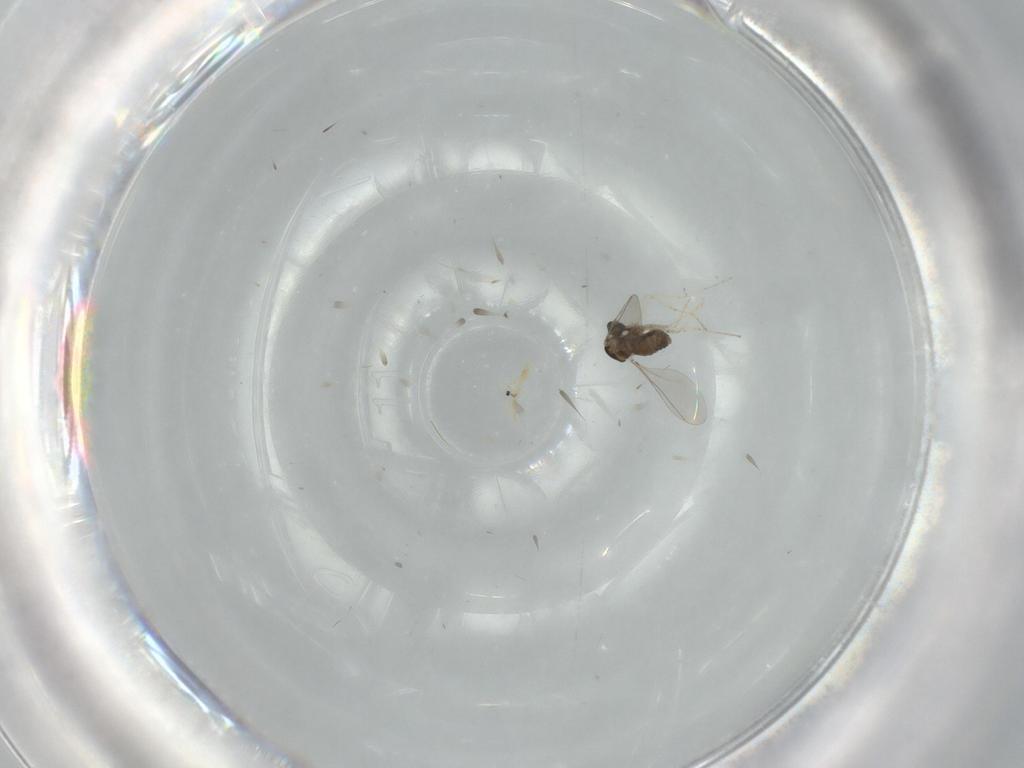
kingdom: Animalia
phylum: Arthropoda
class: Insecta
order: Diptera
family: Cecidomyiidae
